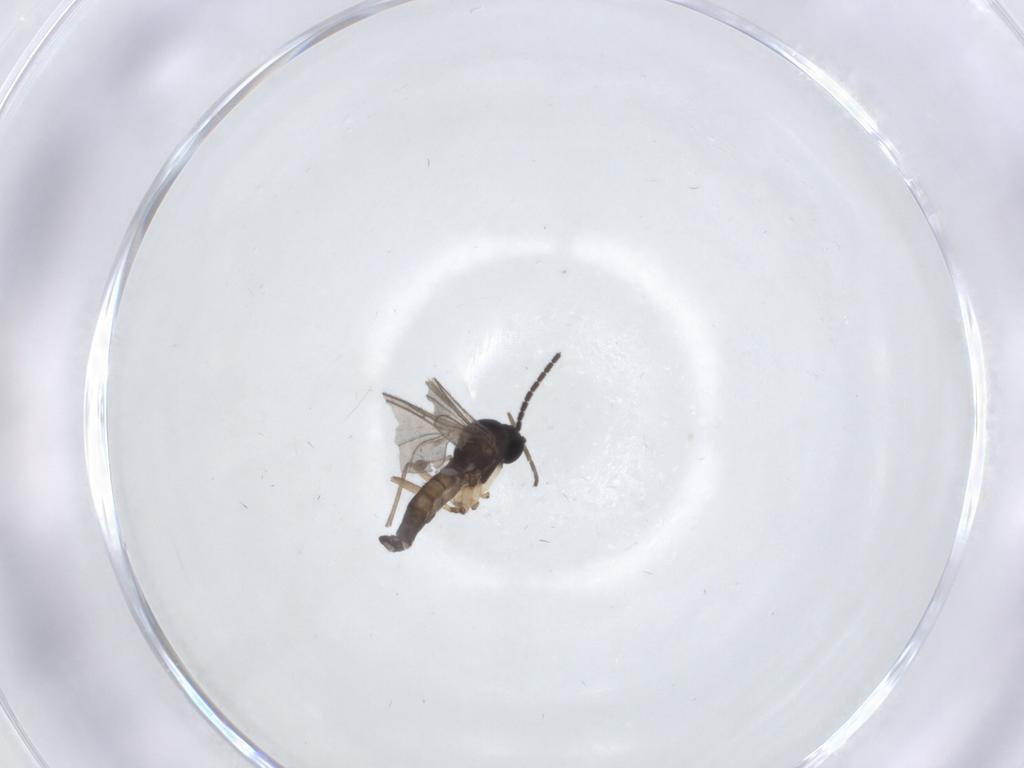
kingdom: Animalia
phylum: Arthropoda
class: Insecta
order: Diptera
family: Sciaridae
